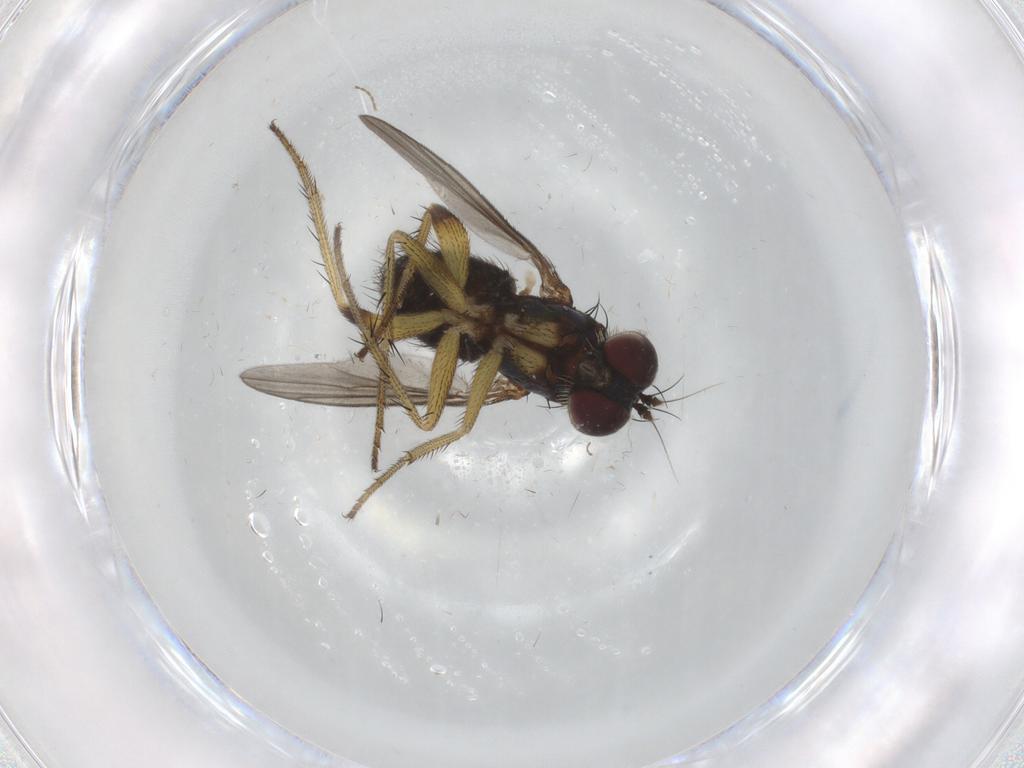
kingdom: Animalia
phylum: Arthropoda
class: Insecta
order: Diptera
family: Dolichopodidae
